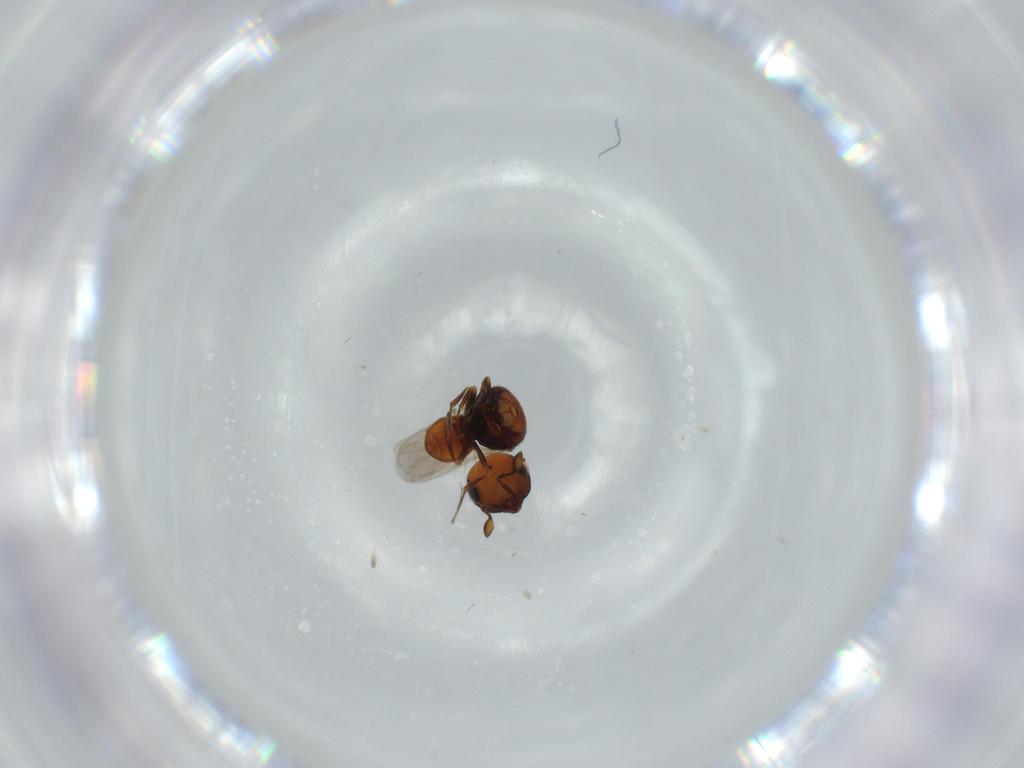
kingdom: Animalia
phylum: Arthropoda
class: Insecta
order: Hymenoptera
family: Scelionidae
